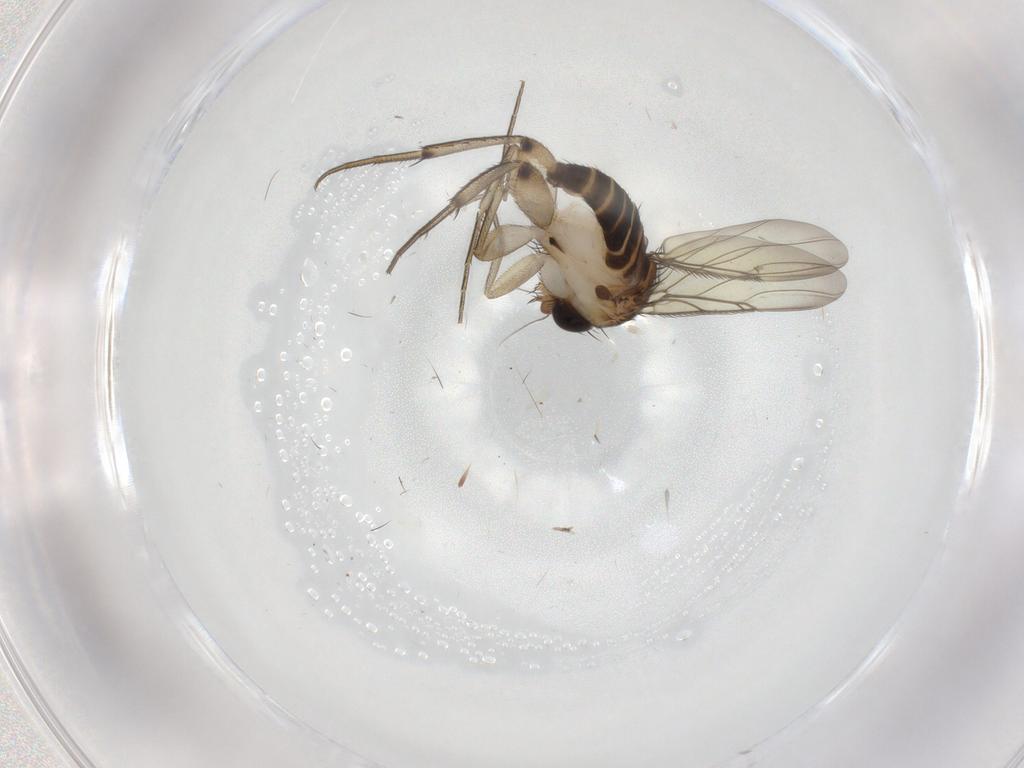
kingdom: Animalia
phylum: Arthropoda
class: Insecta
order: Diptera
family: Phoridae
